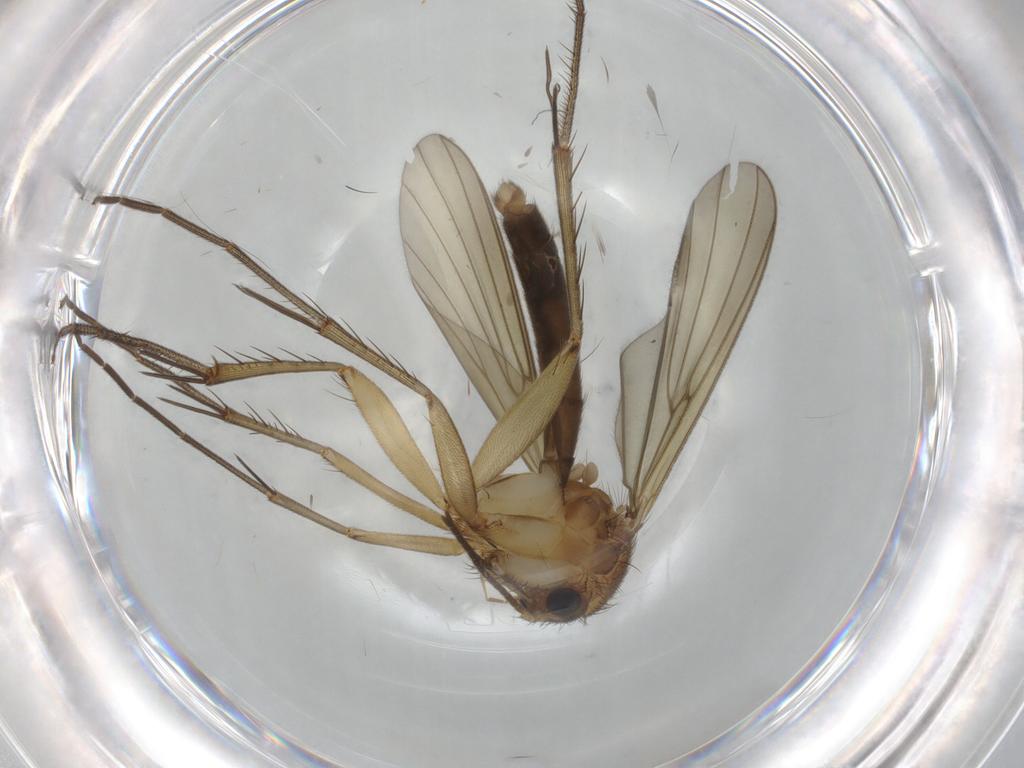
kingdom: Animalia
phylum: Arthropoda
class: Insecta
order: Diptera
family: Mycetophilidae
